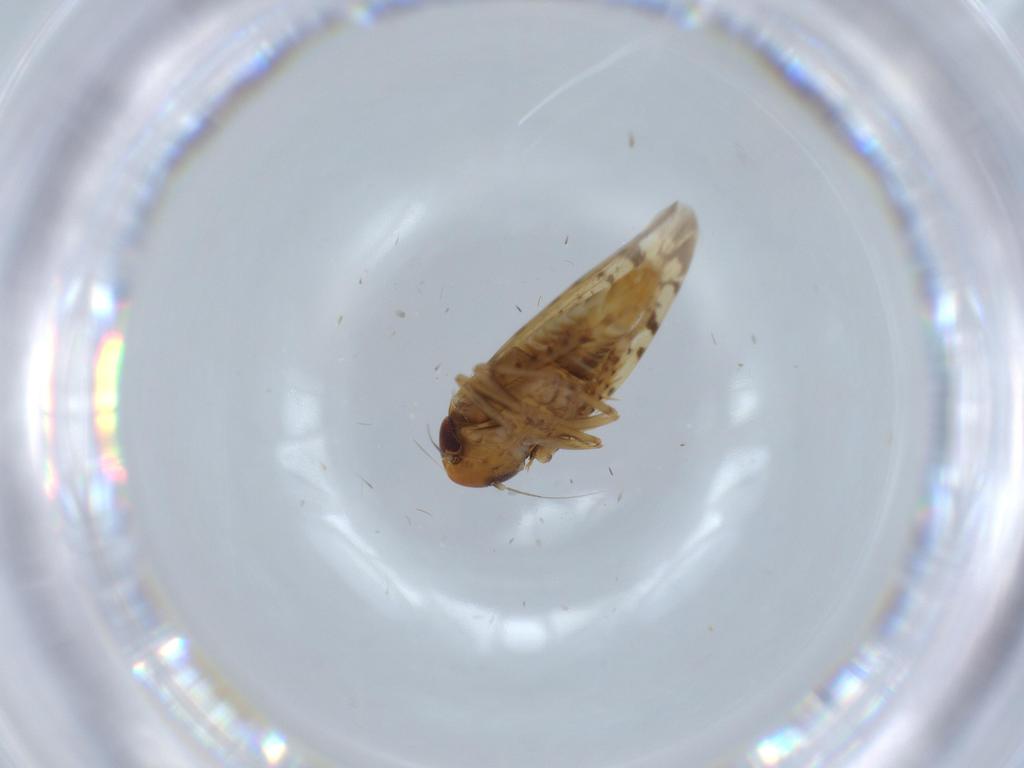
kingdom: Animalia
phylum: Arthropoda
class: Insecta
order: Hemiptera
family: Cicadellidae
